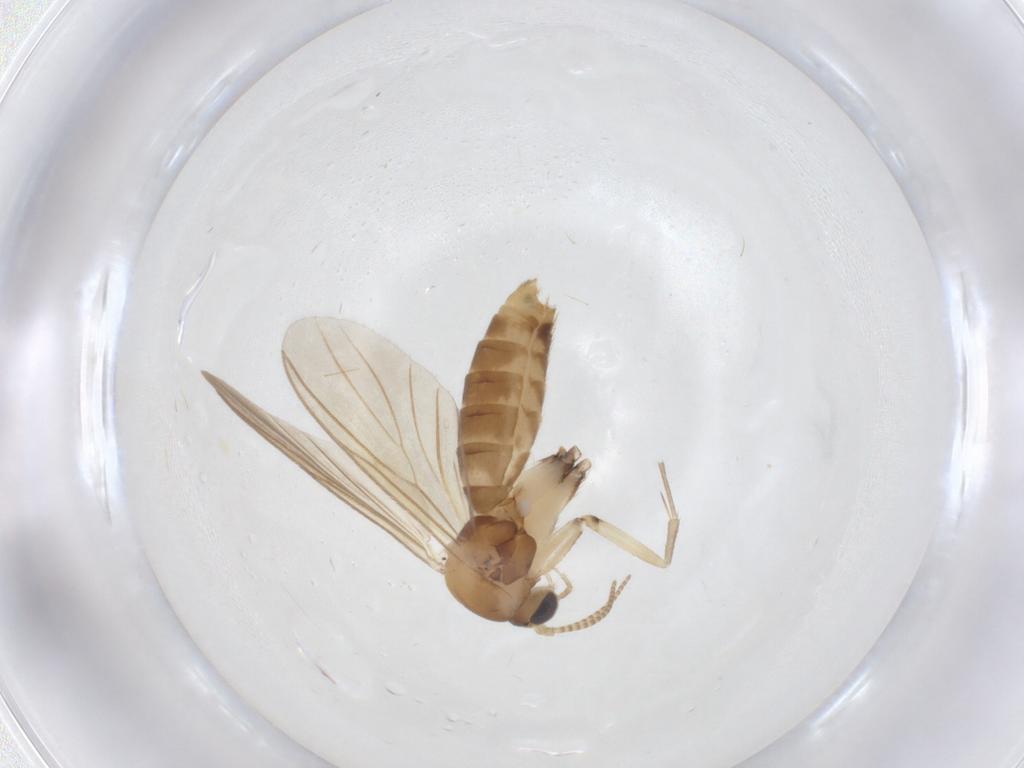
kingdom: Animalia
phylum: Arthropoda
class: Insecta
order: Diptera
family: Mycetophilidae
